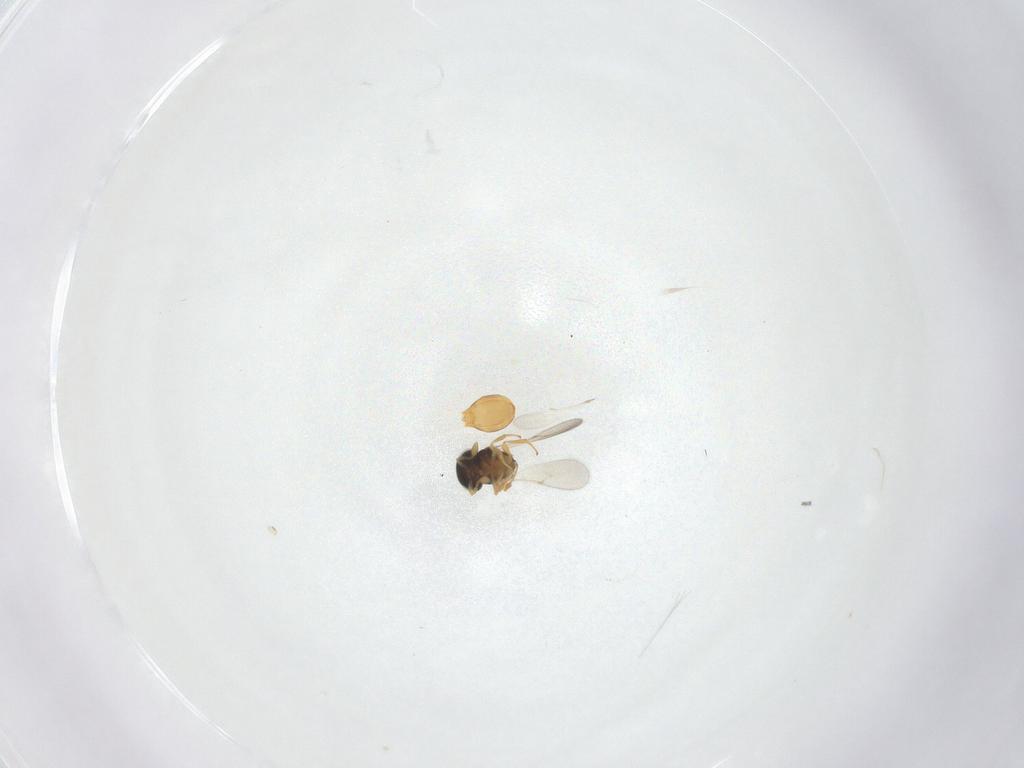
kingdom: Animalia
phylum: Arthropoda
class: Insecta
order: Hymenoptera
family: Scelionidae
